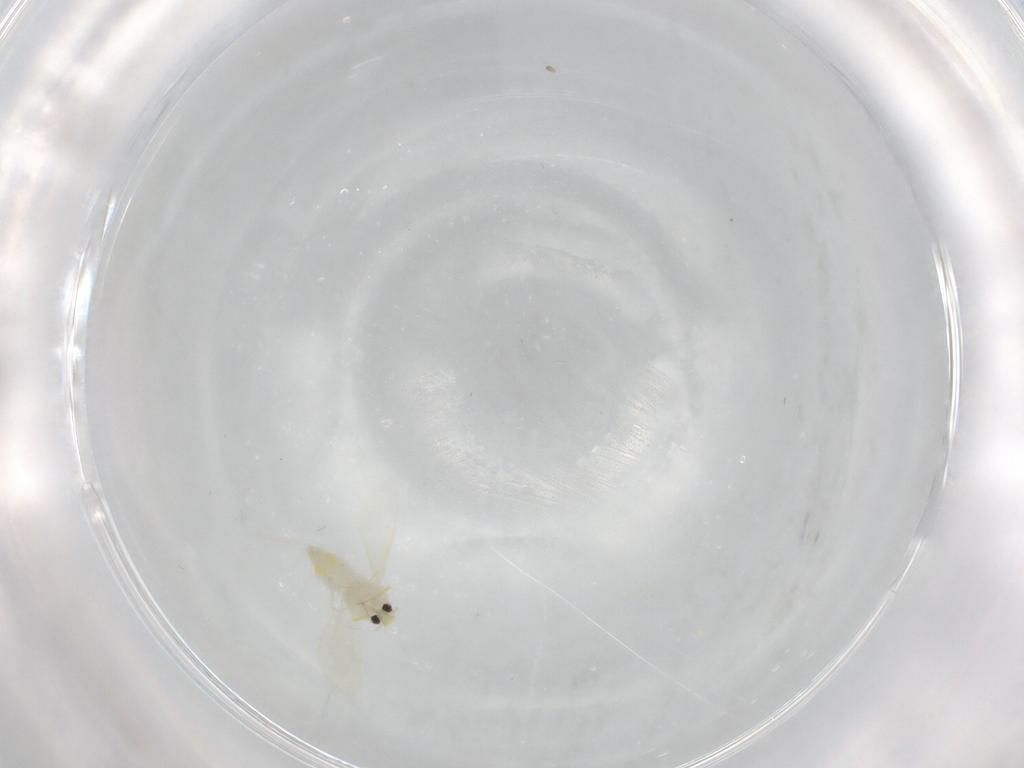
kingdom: Animalia
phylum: Arthropoda
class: Insecta
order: Hemiptera
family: Aleyrodidae
